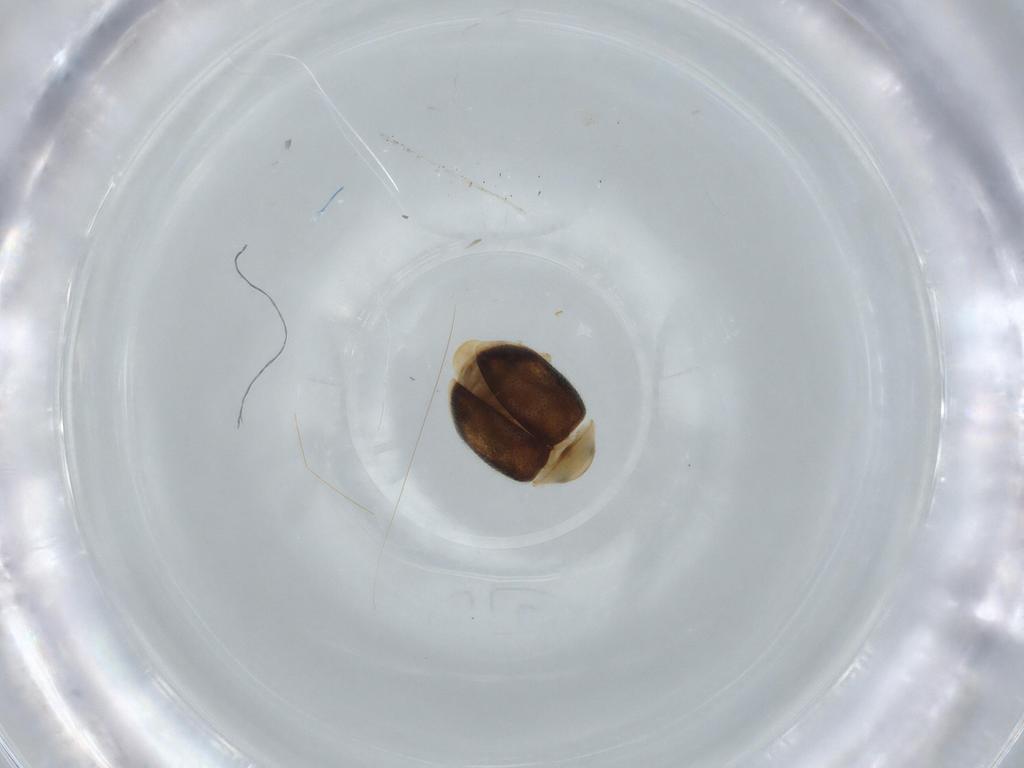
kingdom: Animalia
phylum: Arthropoda
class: Insecta
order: Coleoptera
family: Coccinellidae
